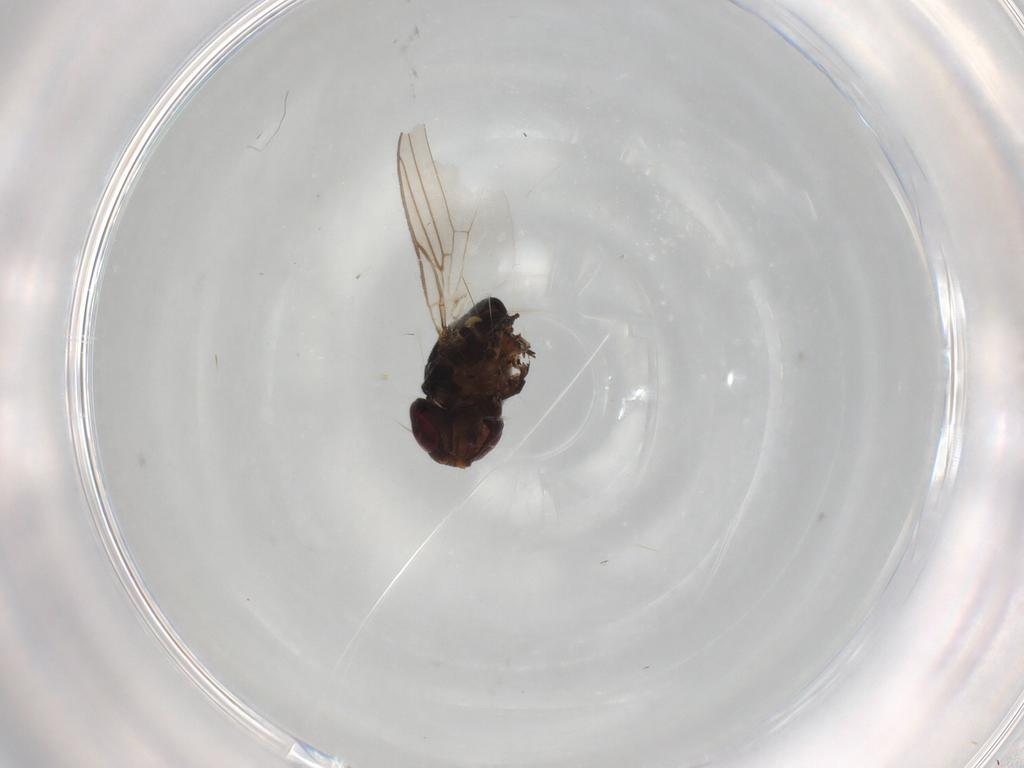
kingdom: Animalia
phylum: Arthropoda
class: Insecta
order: Diptera
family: Chloropidae
